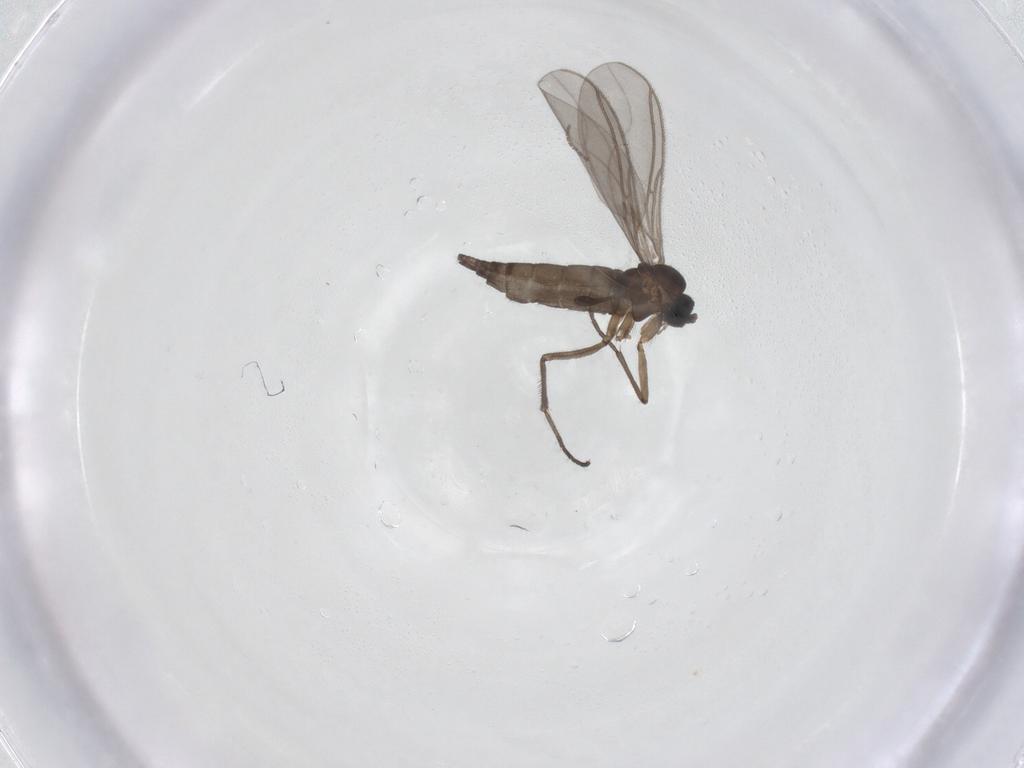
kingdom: Animalia
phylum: Arthropoda
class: Insecta
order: Diptera
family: Sciaridae
